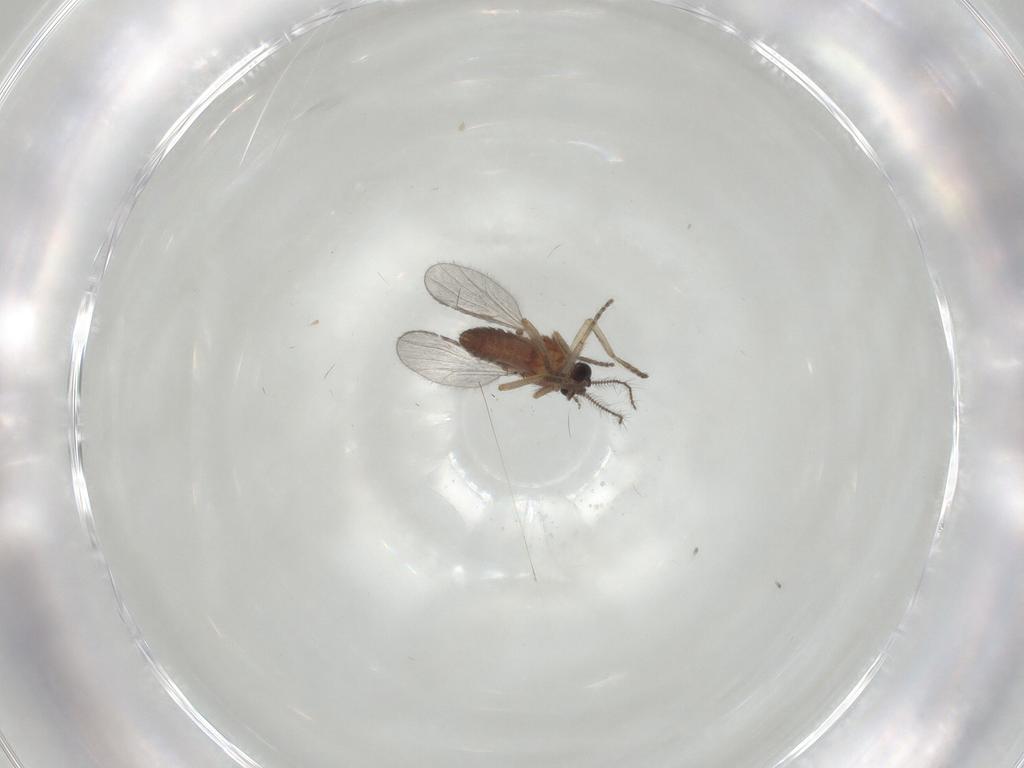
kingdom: Animalia
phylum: Arthropoda
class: Insecta
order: Diptera
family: Ceratopogonidae
